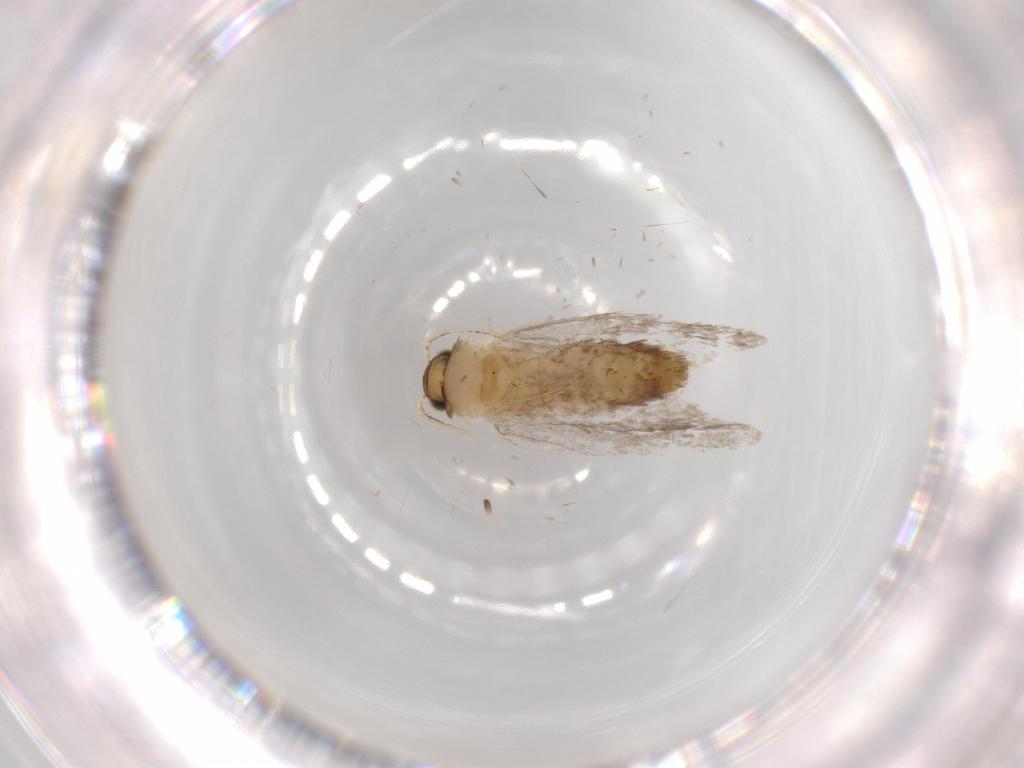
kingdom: Animalia
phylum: Arthropoda
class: Insecta
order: Lepidoptera
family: Tineidae
